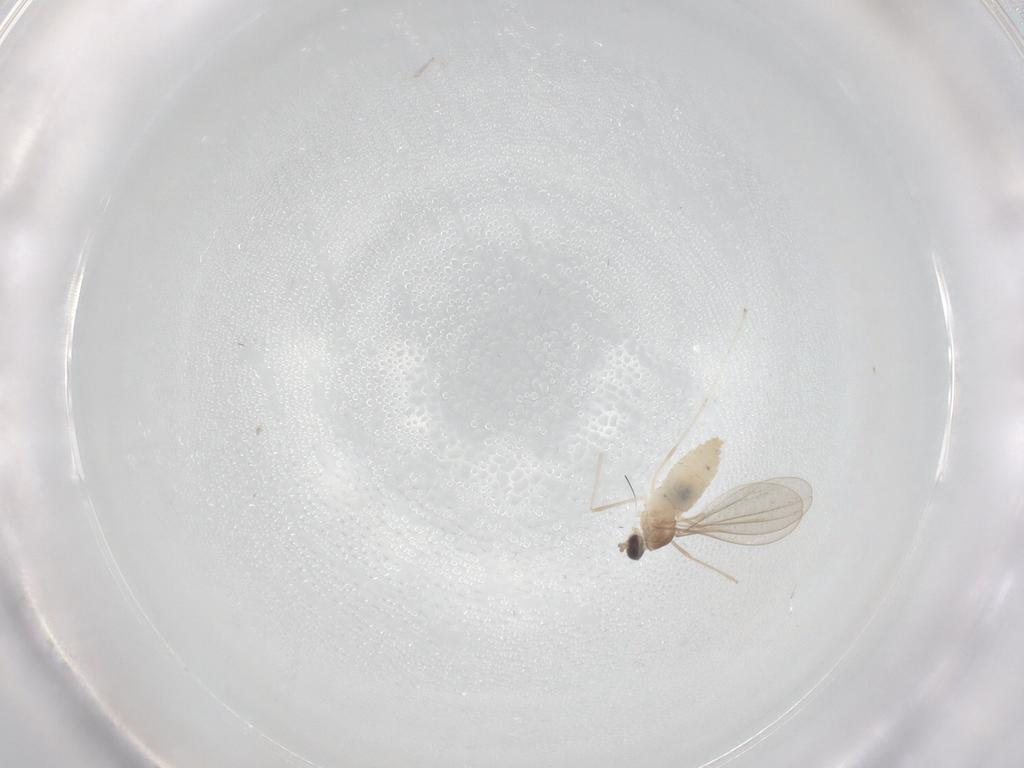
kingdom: Animalia
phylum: Arthropoda
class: Insecta
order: Diptera
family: Cecidomyiidae
